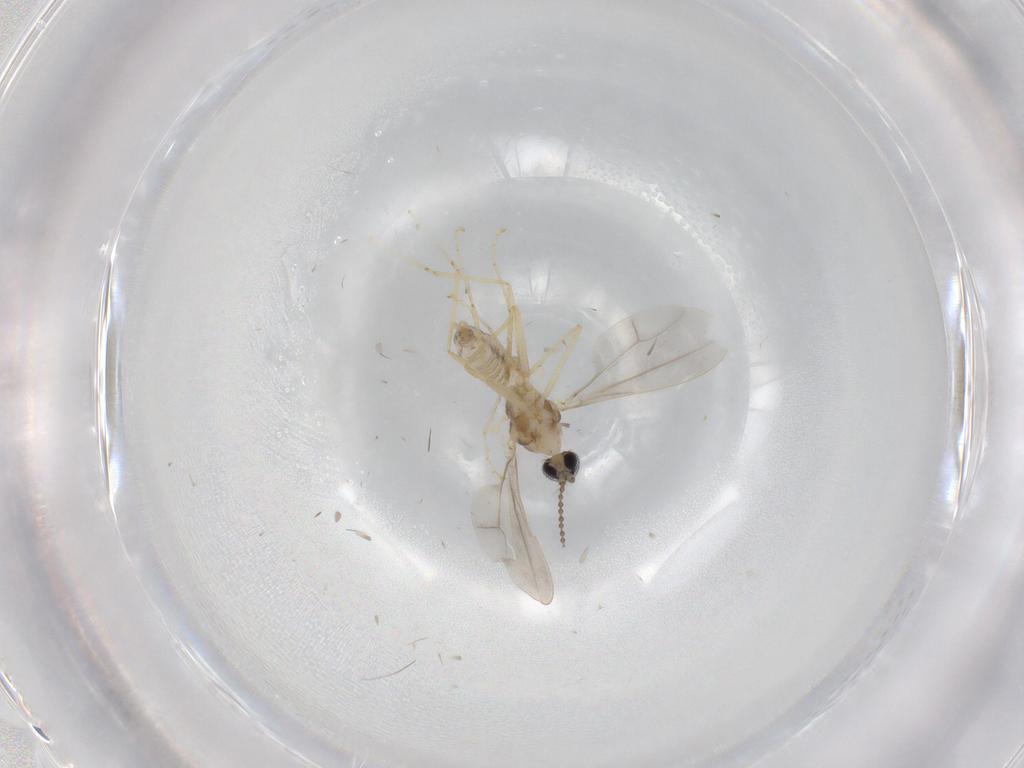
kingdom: Animalia
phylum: Arthropoda
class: Insecta
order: Diptera
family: Cecidomyiidae
